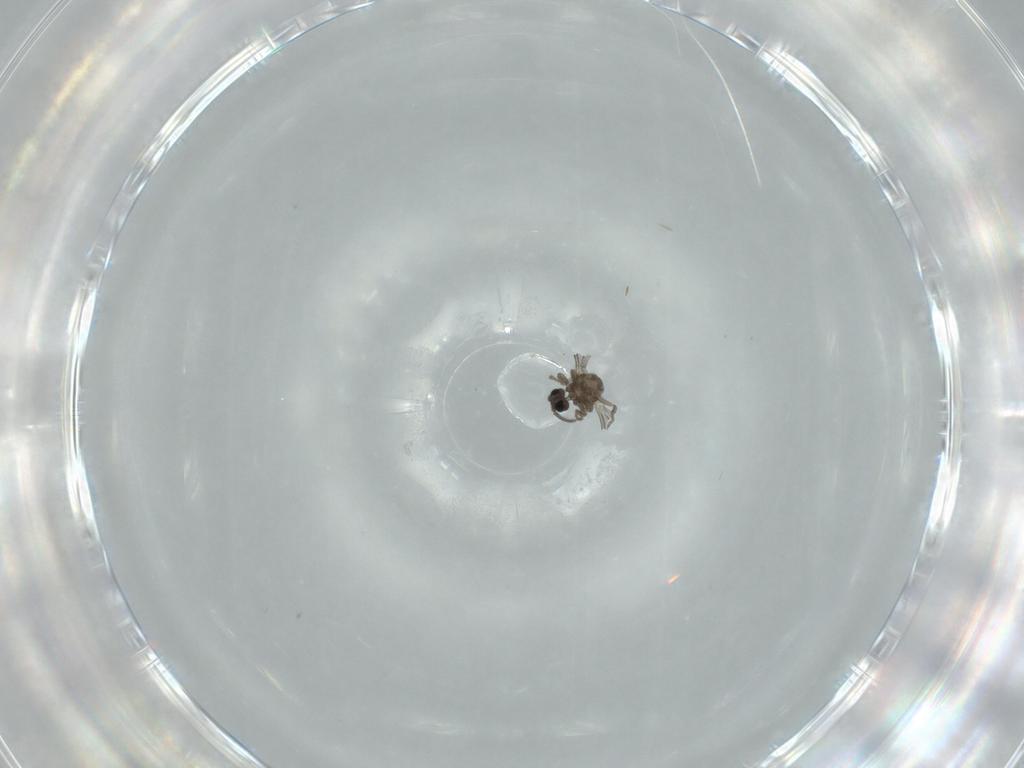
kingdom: Animalia
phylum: Arthropoda
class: Insecta
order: Diptera
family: Cecidomyiidae
